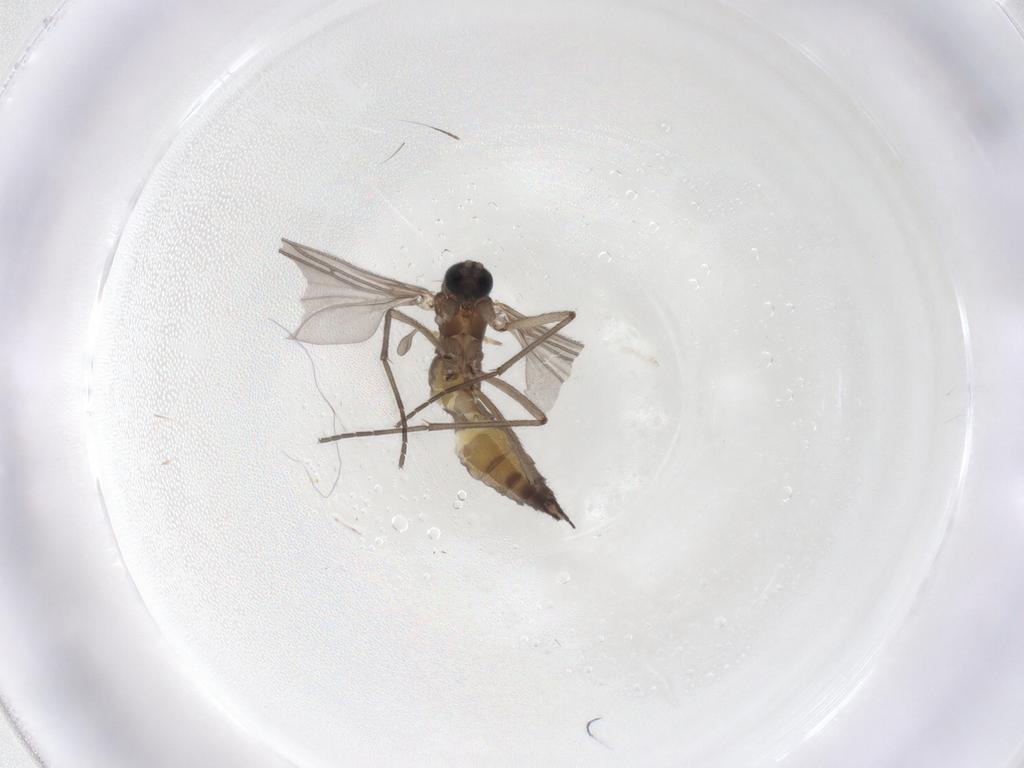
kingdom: Animalia
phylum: Arthropoda
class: Insecta
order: Diptera
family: Sciaridae
